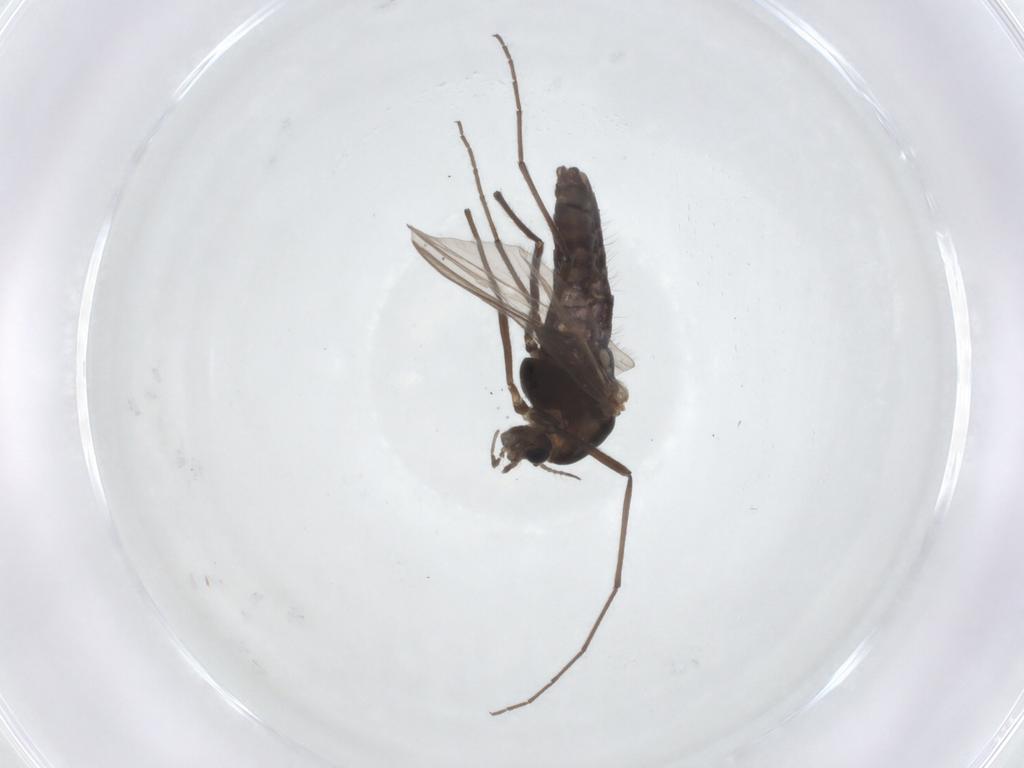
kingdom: Animalia
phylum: Arthropoda
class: Insecta
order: Diptera
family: Chironomidae
